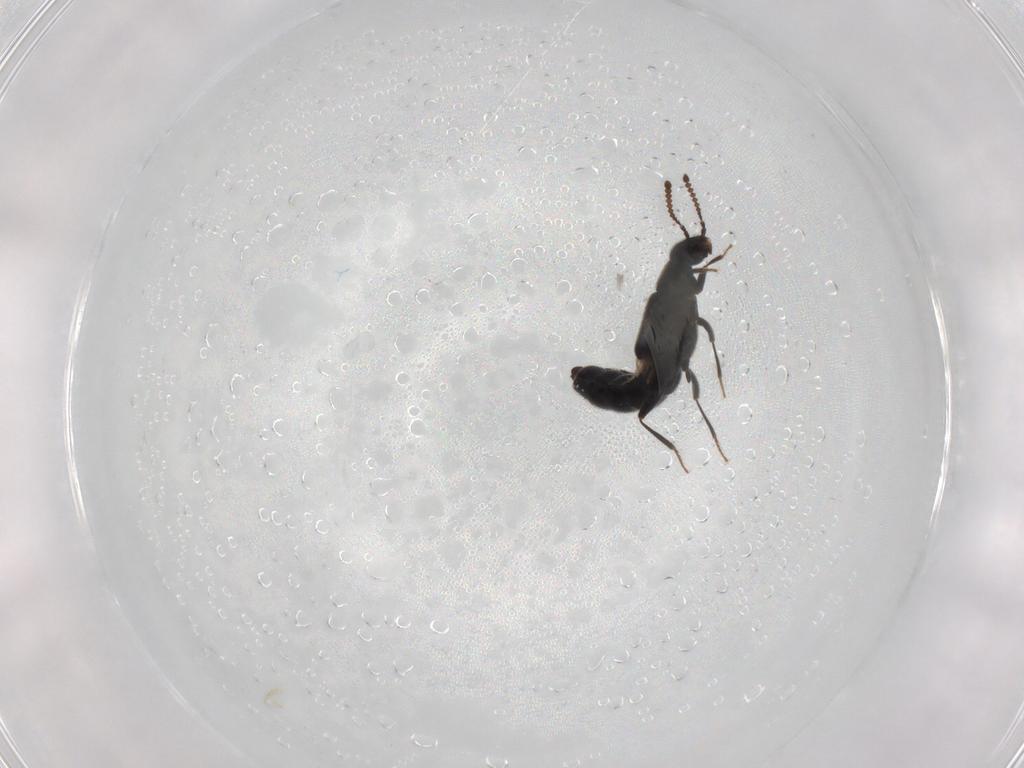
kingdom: Animalia
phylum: Arthropoda
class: Insecta
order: Coleoptera
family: Staphylinidae
